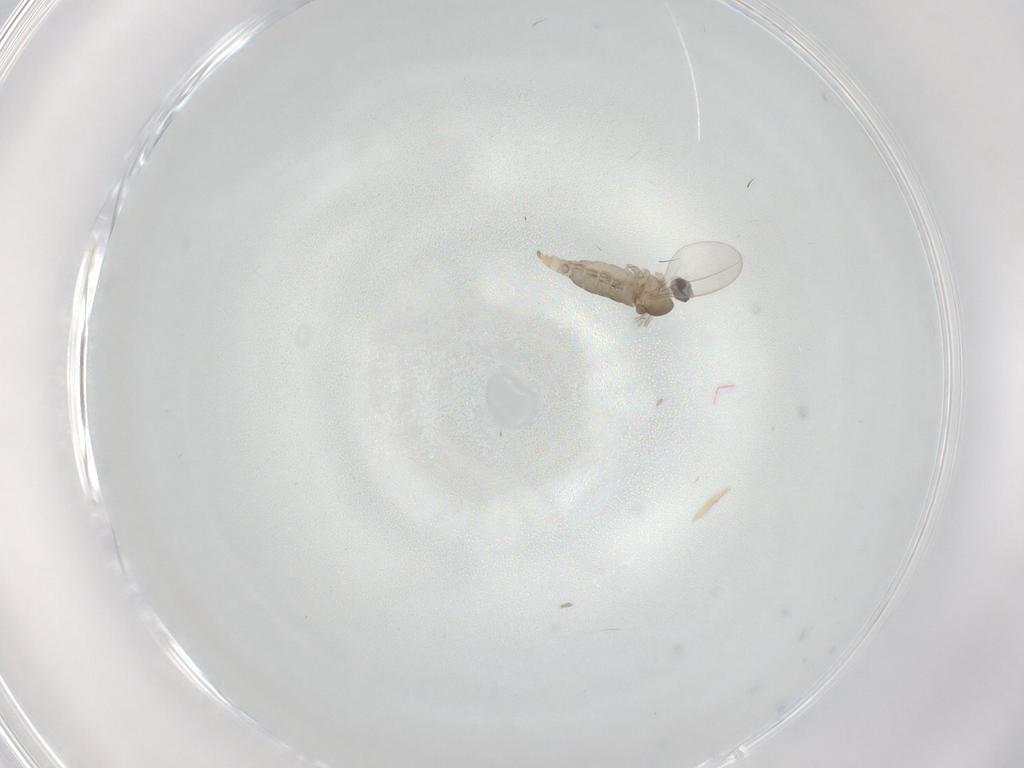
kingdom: Animalia
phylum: Arthropoda
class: Insecta
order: Diptera
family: Cecidomyiidae
